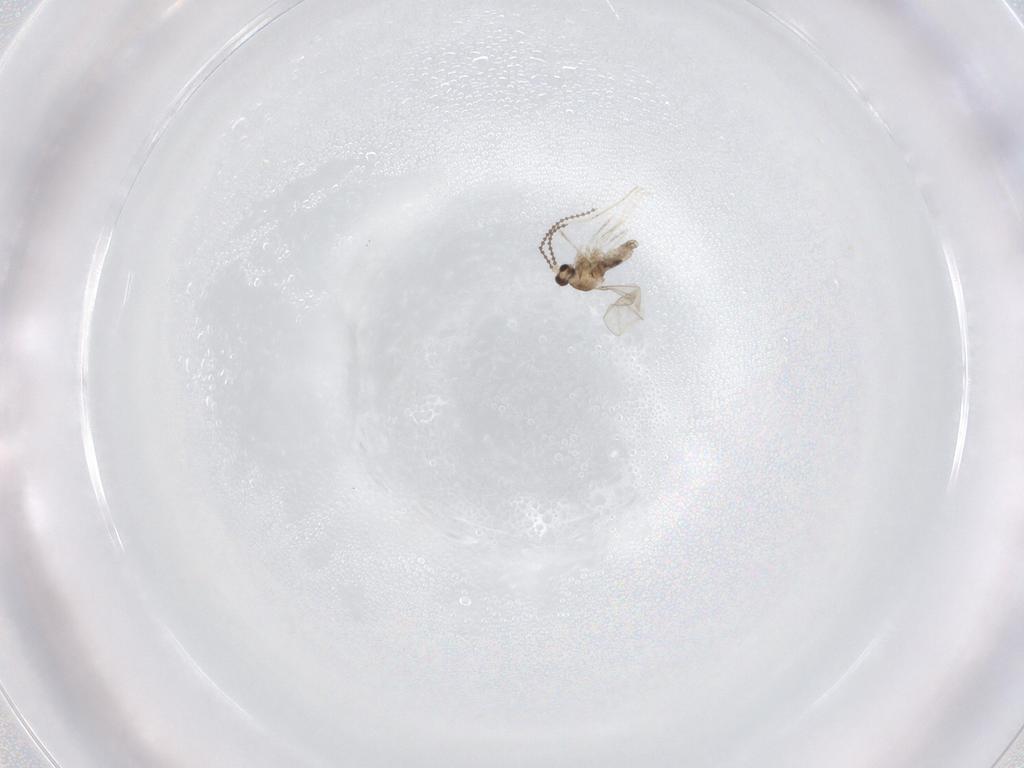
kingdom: Animalia
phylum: Arthropoda
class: Insecta
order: Diptera
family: Cecidomyiidae
